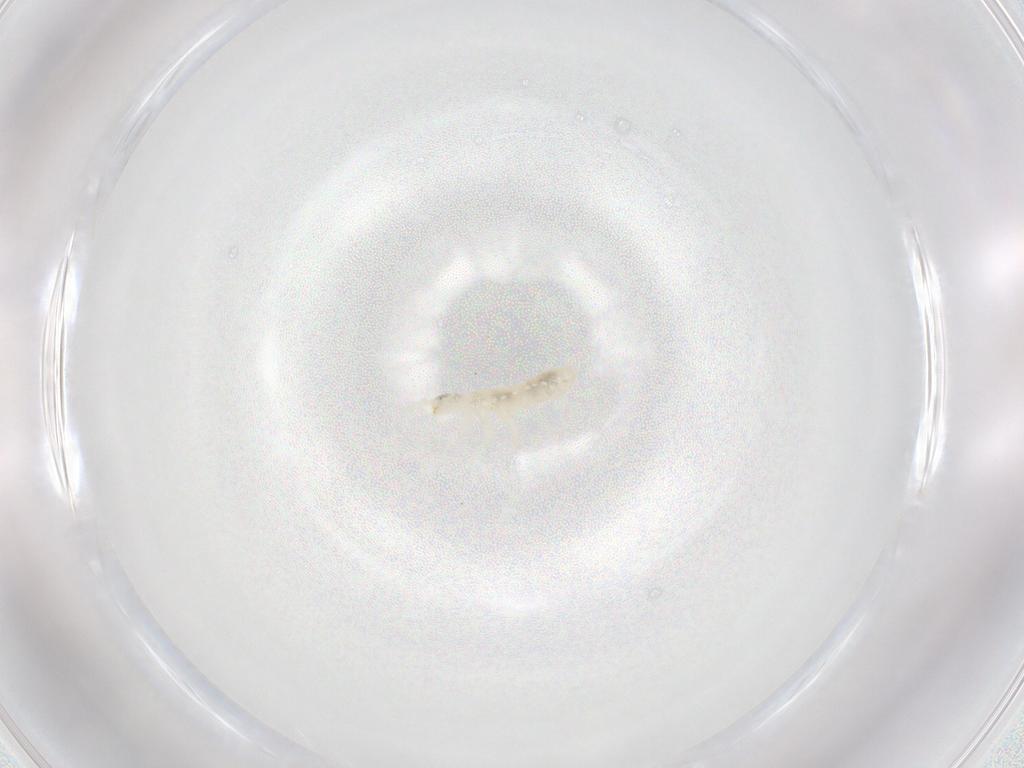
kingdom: Animalia
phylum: Arthropoda
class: Collembola
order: Entomobryomorpha
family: Isotomidae
